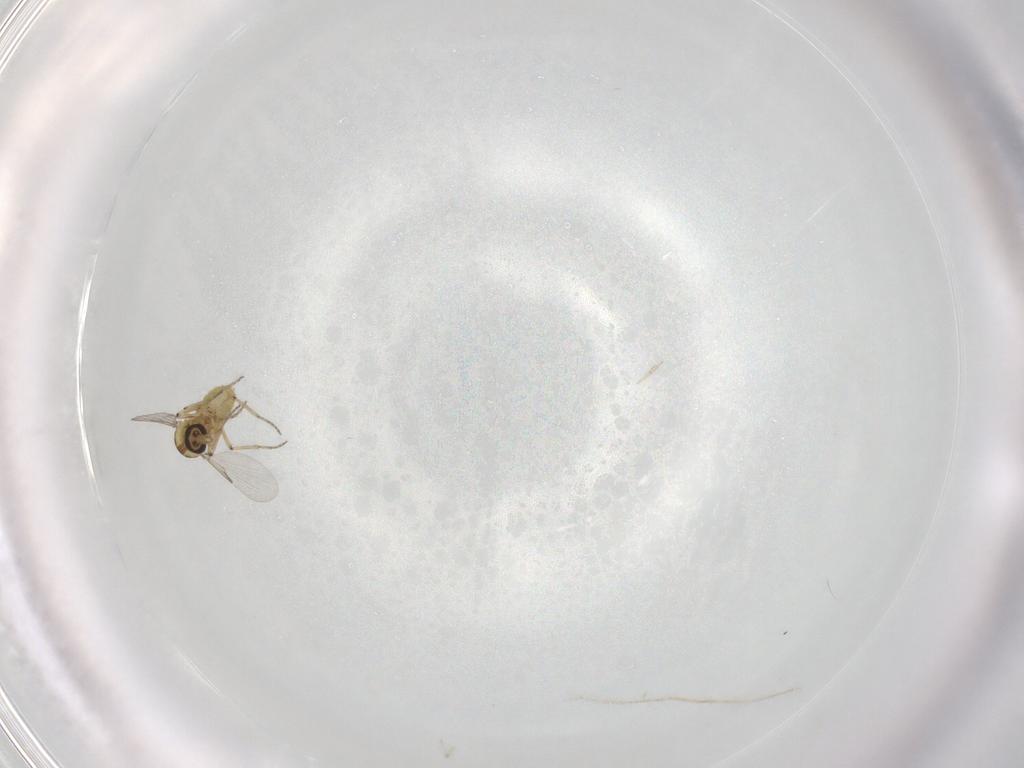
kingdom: Animalia
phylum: Arthropoda
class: Insecta
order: Diptera
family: Ceratopogonidae
